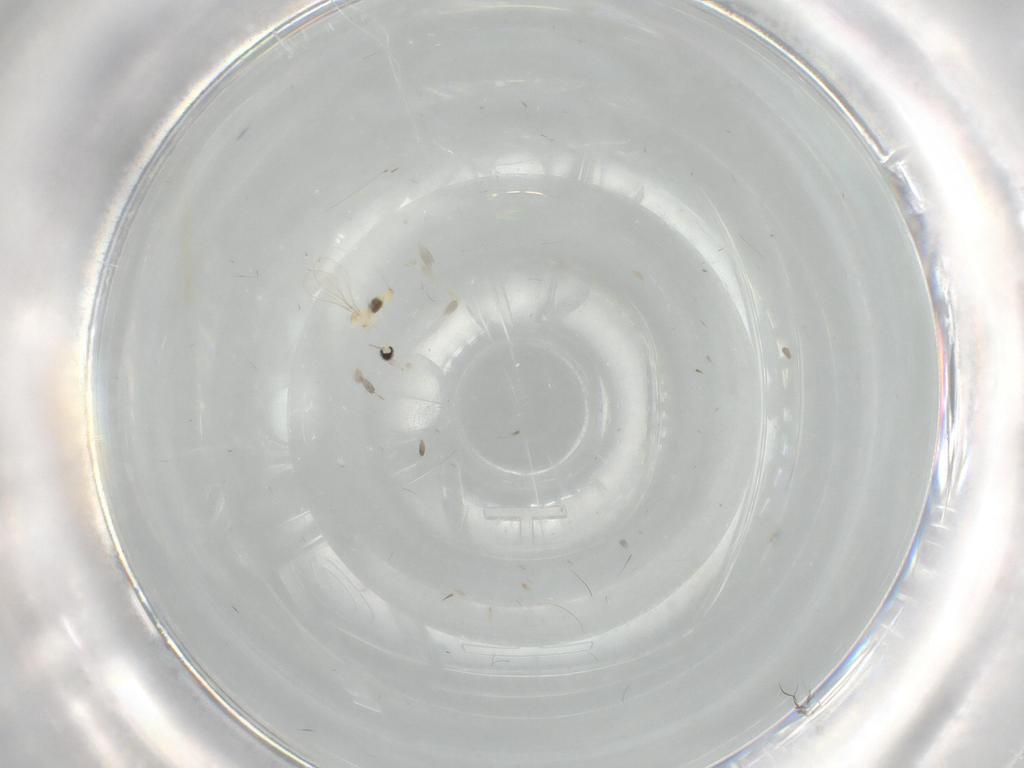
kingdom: Animalia
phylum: Arthropoda
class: Insecta
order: Diptera
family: Cecidomyiidae
